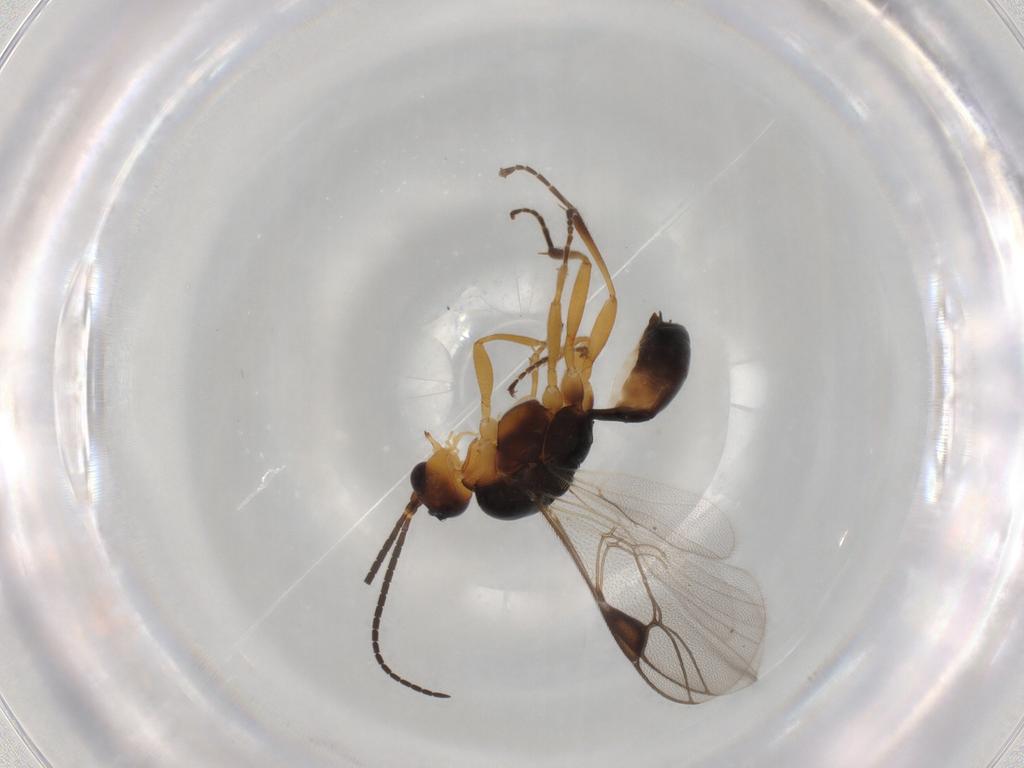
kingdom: Animalia
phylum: Arthropoda
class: Insecta
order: Hymenoptera
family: Braconidae
